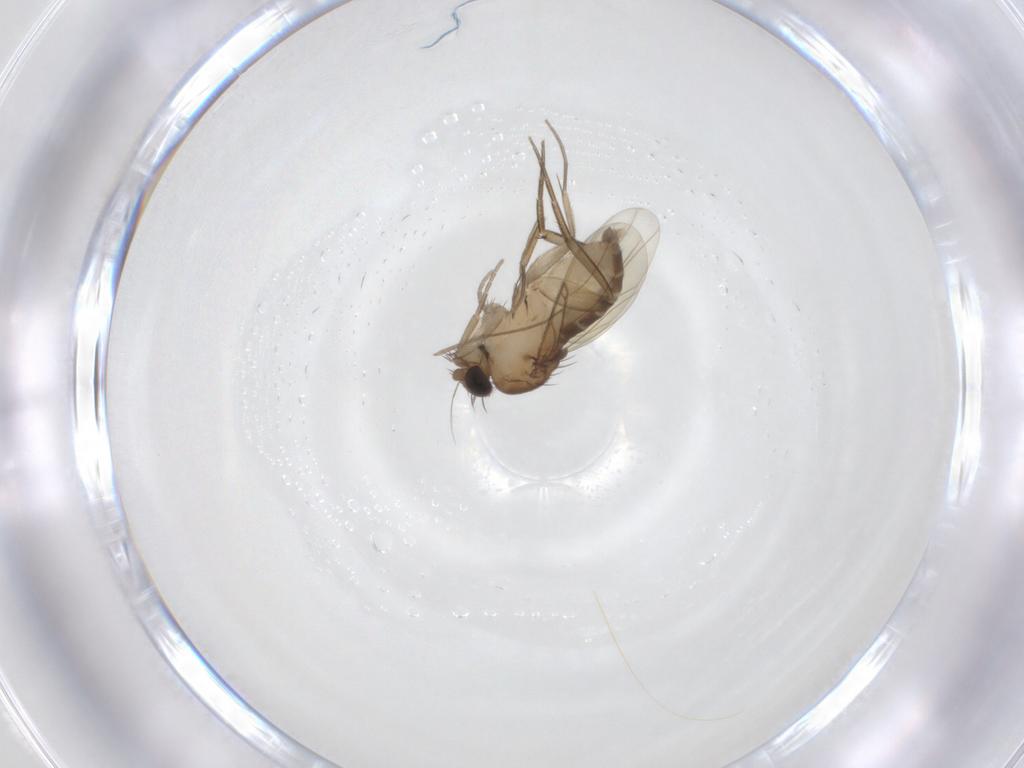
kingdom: Animalia
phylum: Arthropoda
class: Insecta
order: Diptera
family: Phoridae
